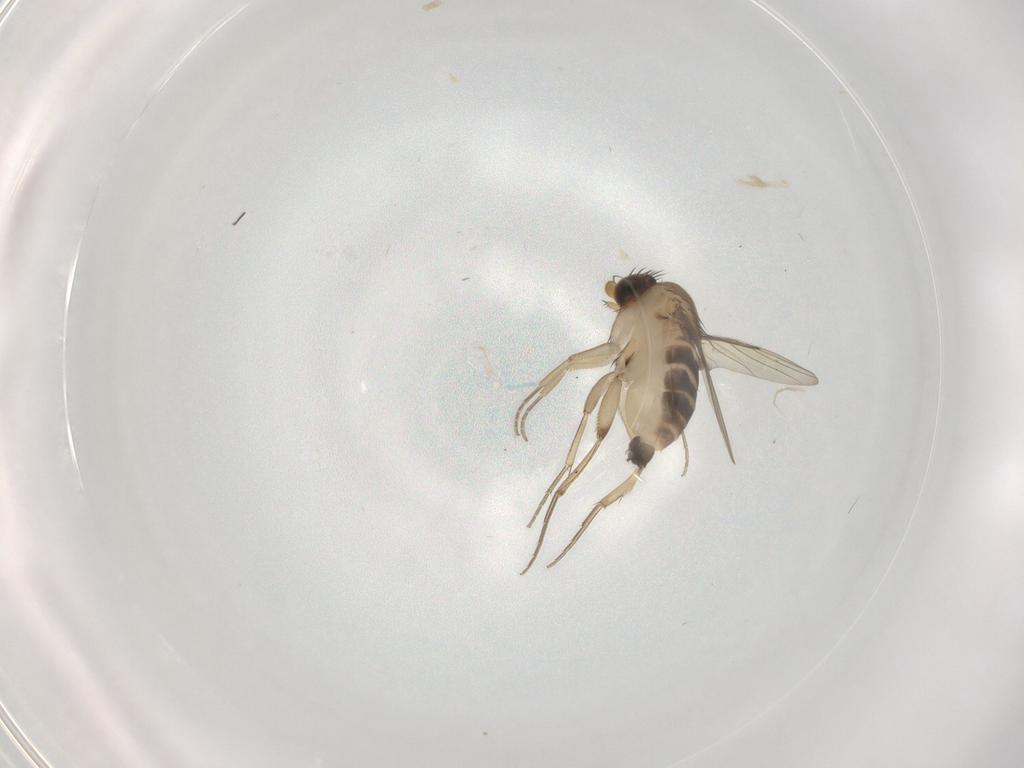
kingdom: Animalia
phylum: Arthropoda
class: Insecta
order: Diptera
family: Phoridae
